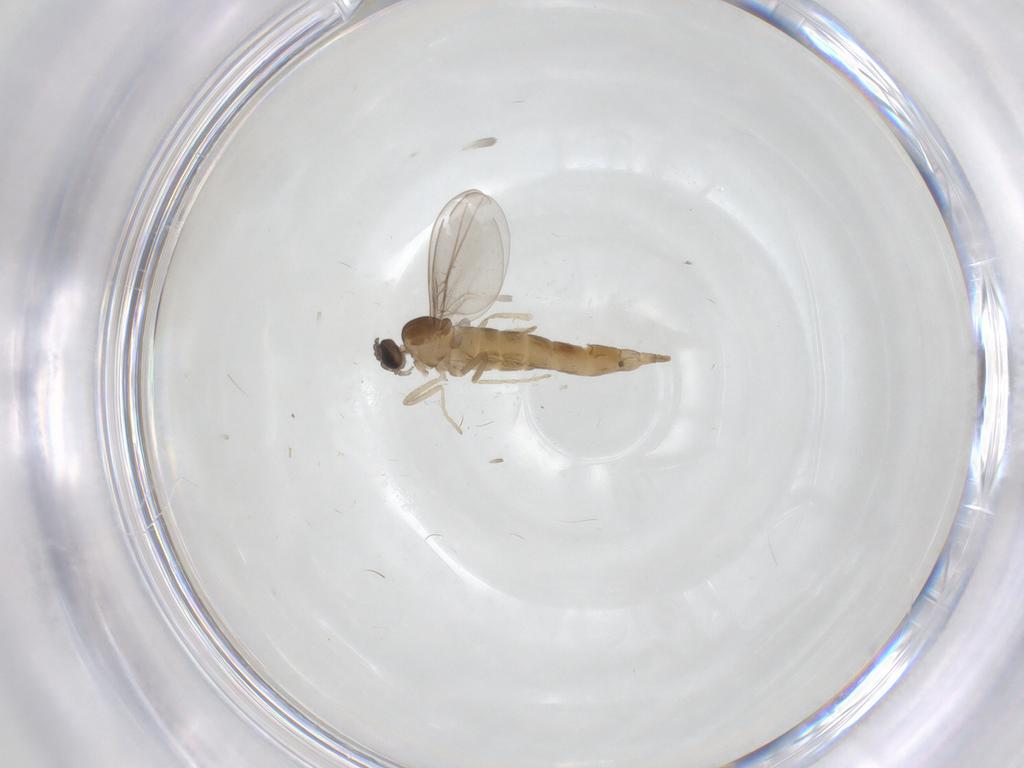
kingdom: Animalia
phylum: Arthropoda
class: Insecta
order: Diptera
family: Cecidomyiidae
